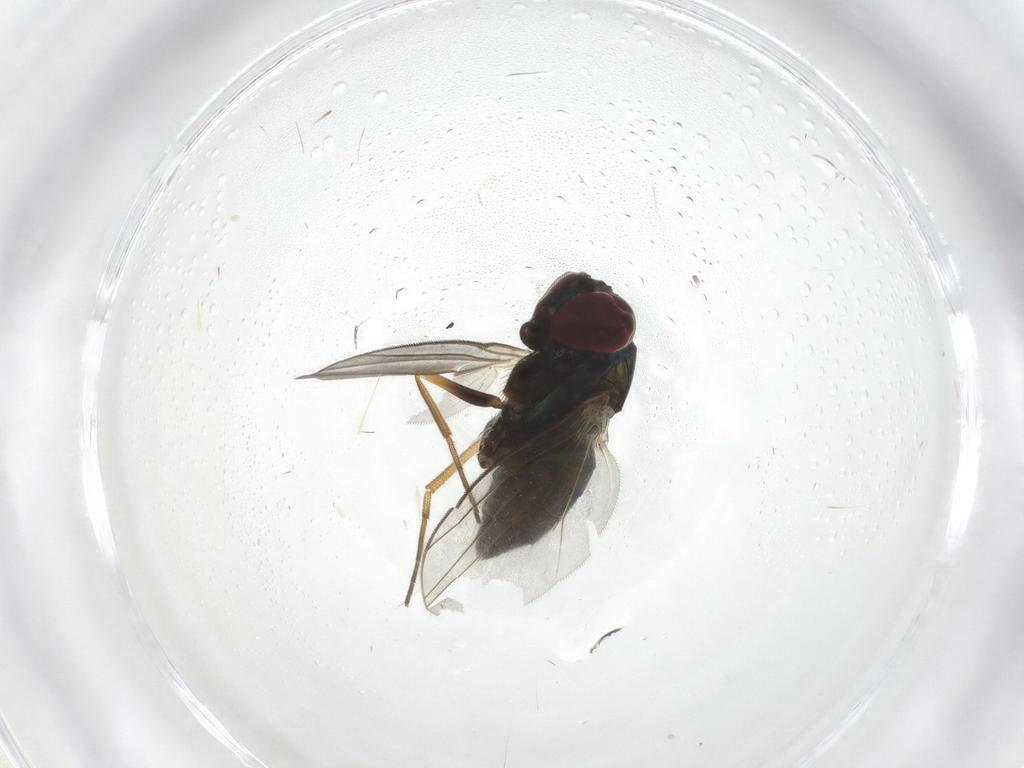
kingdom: Animalia
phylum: Arthropoda
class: Insecta
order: Diptera
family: Dolichopodidae
